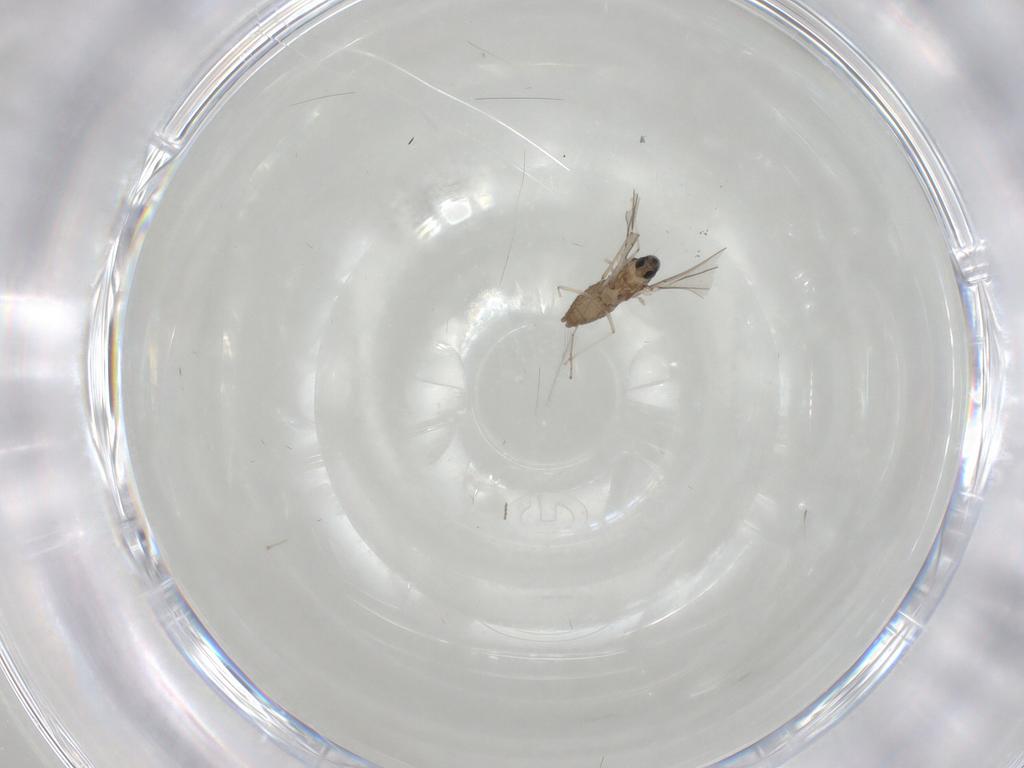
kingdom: Animalia
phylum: Arthropoda
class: Insecta
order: Diptera
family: Cecidomyiidae
